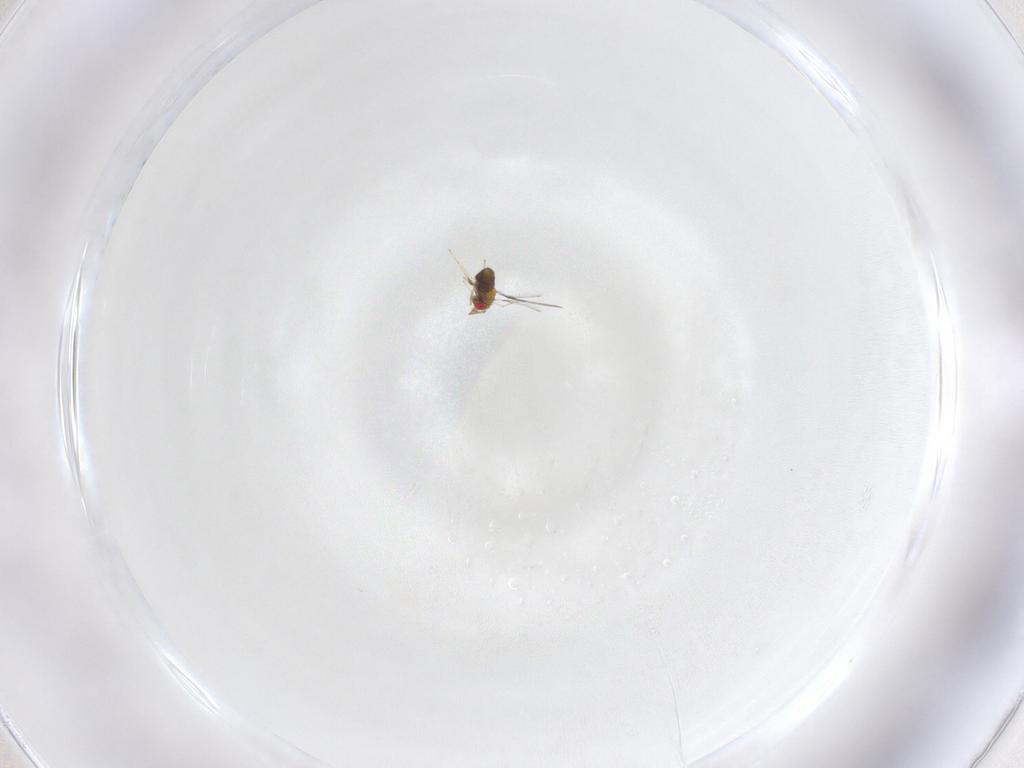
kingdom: Animalia
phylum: Arthropoda
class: Insecta
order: Hymenoptera
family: Trichogrammatidae
